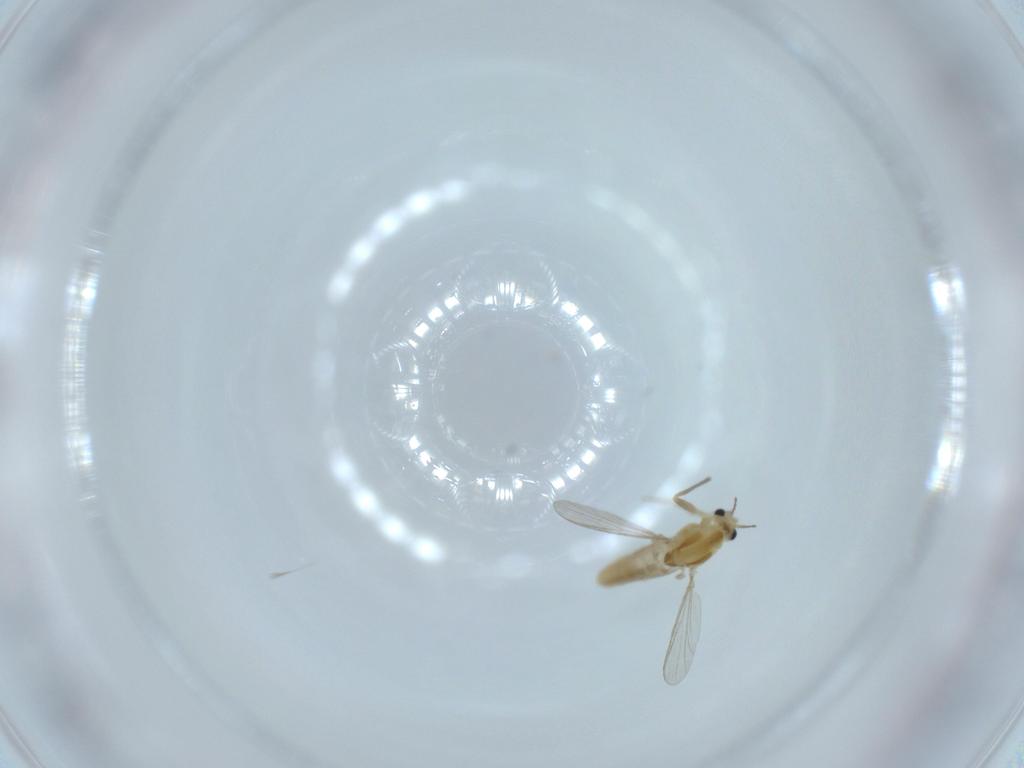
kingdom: Animalia
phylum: Arthropoda
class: Insecta
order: Diptera
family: Chironomidae
